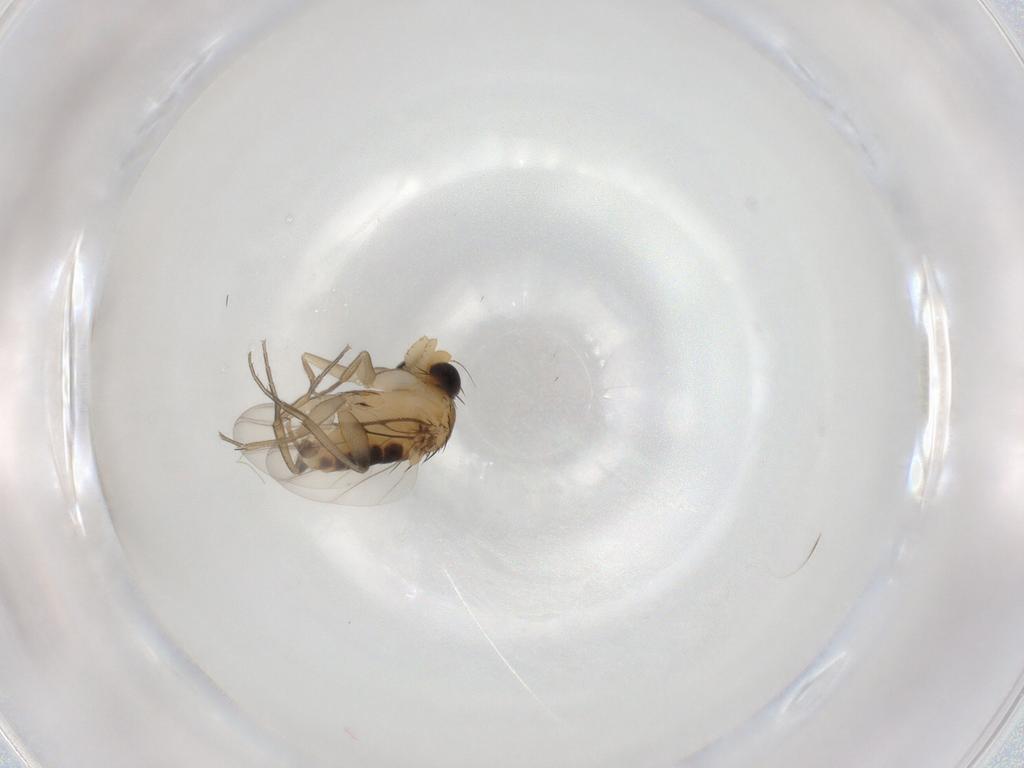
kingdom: Animalia
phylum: Arthropoda
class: Insecta
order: Diptera
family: Phoridae
